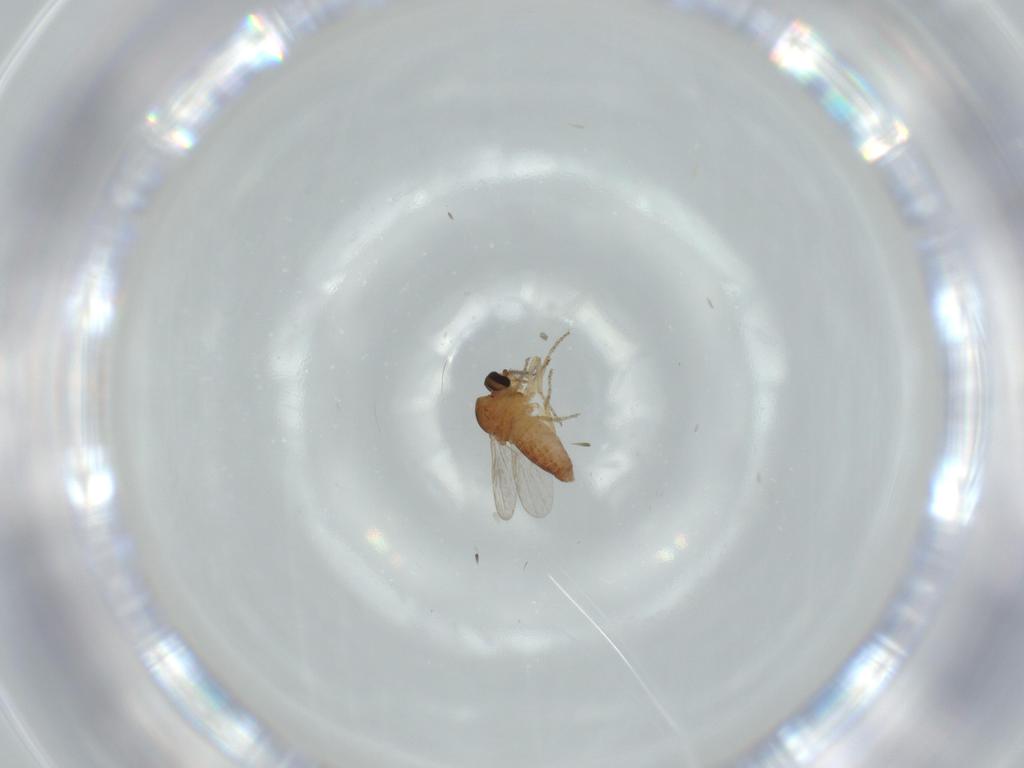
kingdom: Animalia
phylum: Arthropoda
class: Insecta
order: Diptera
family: Ceratopogonidae
